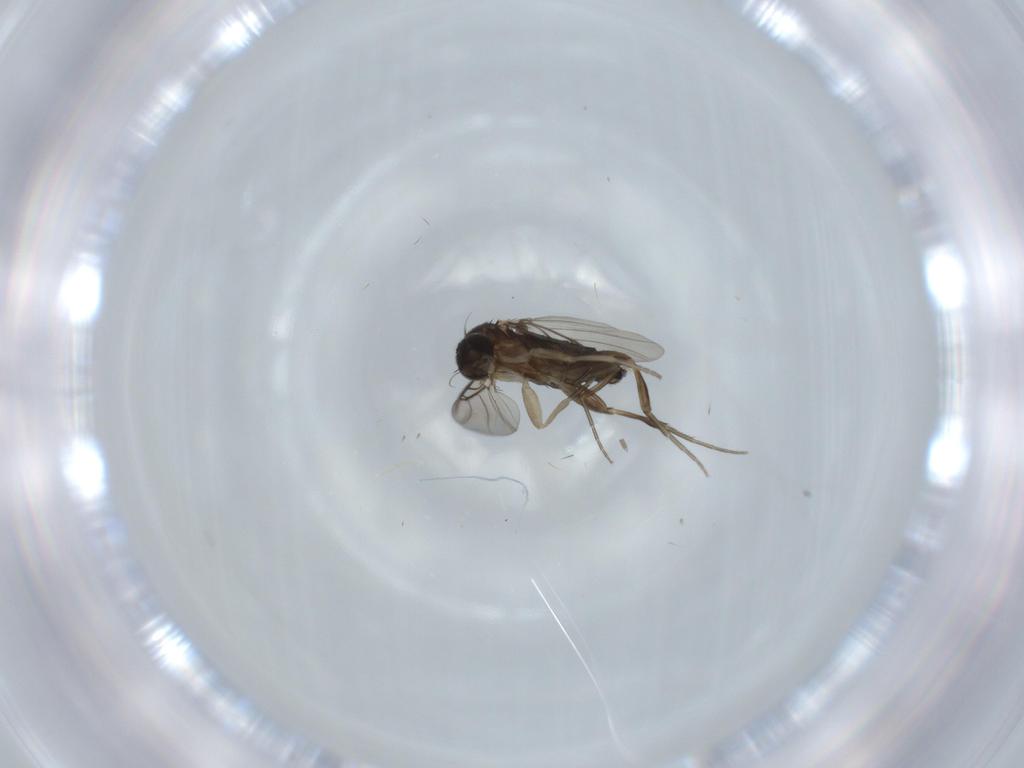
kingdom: Animalia
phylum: Arthropoda
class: Insecta
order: Diptera
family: Phoridae
